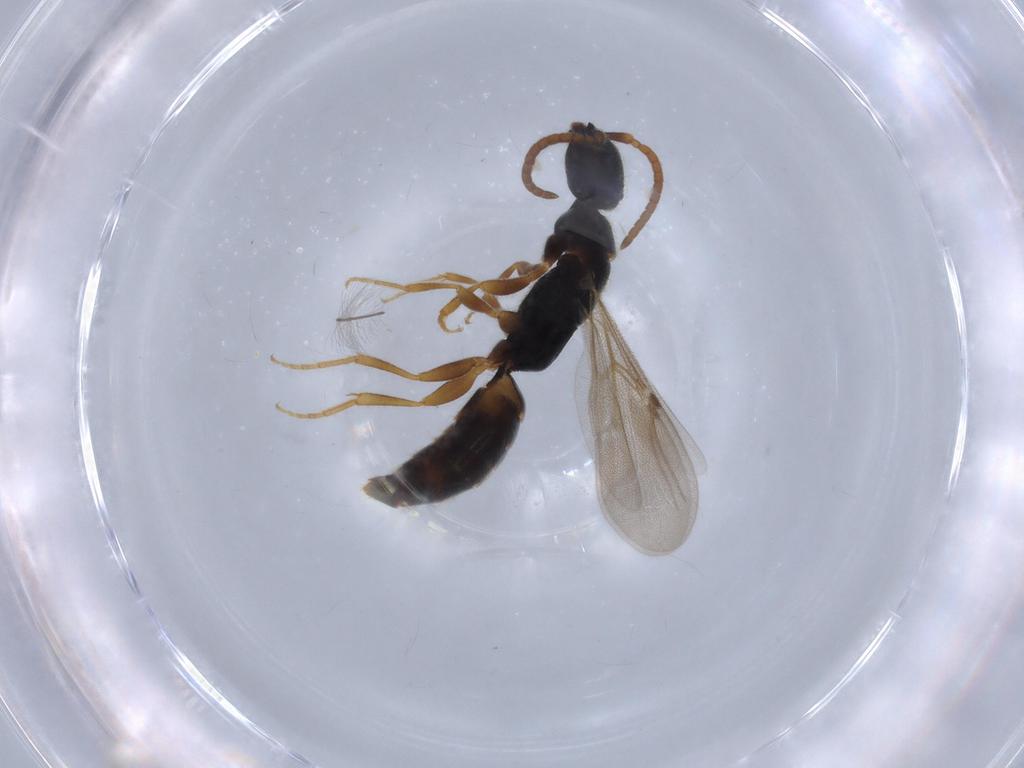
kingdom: Animalia
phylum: Arthropoda
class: Insecta
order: Hymenoptera
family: Bethylidae
